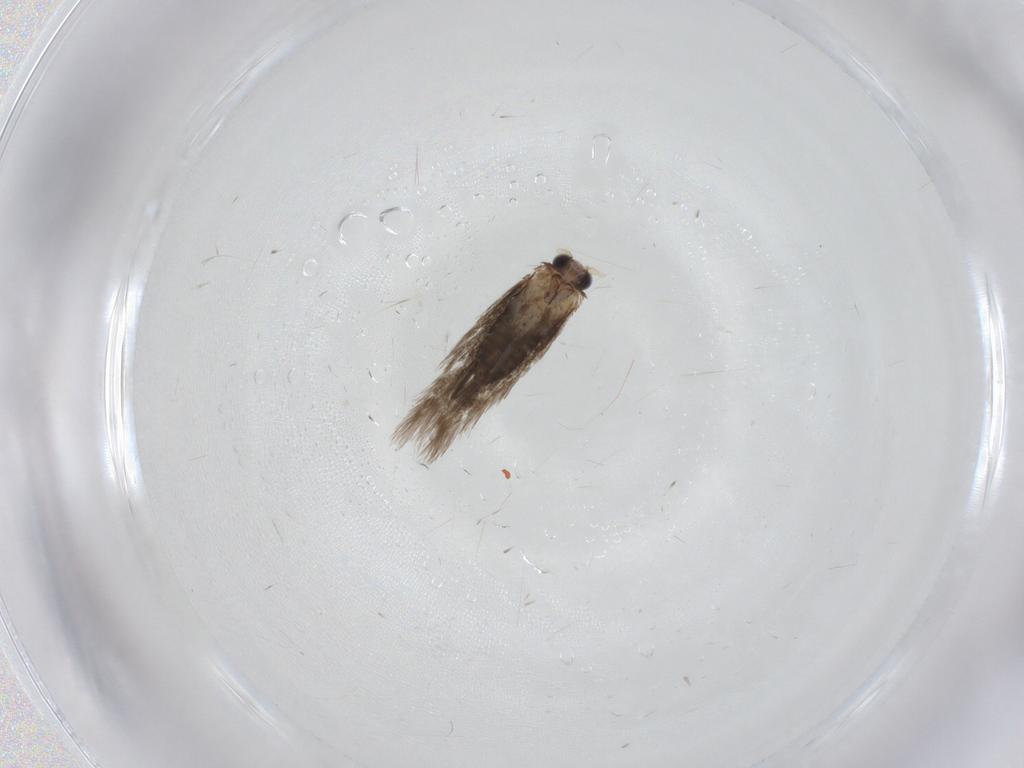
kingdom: Animalia
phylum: Arthropoda
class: Insecta
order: Lepidoptera
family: Nepticulidae
